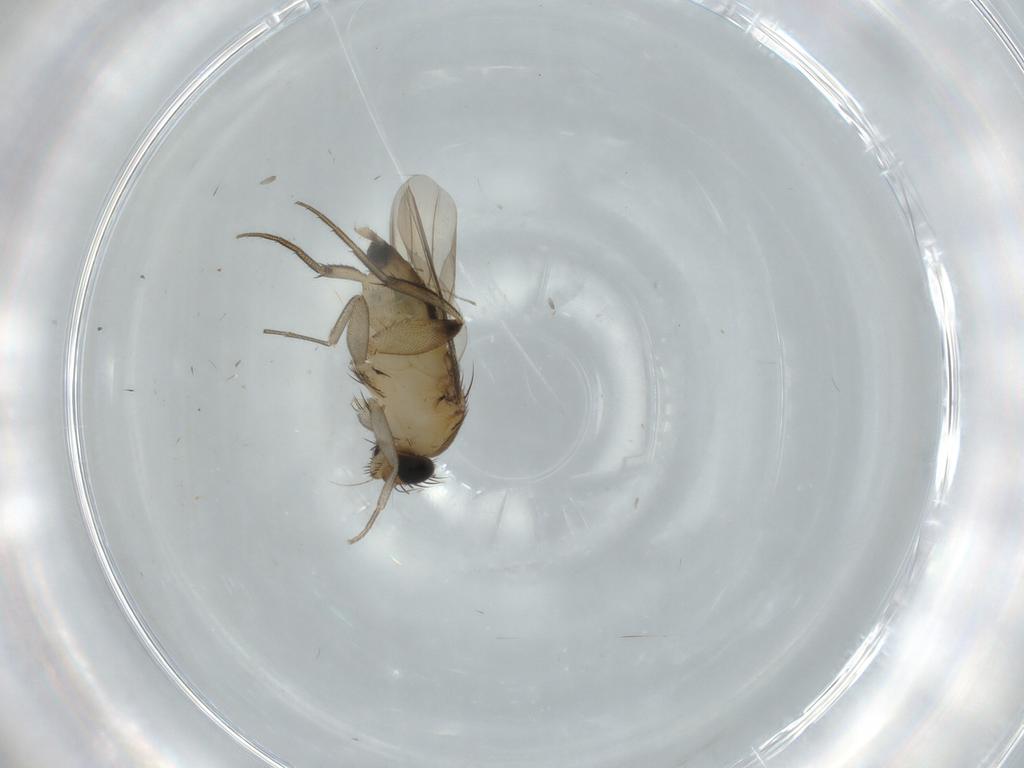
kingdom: Animalia
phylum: Arthropoda
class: Insecta
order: Diptera
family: Phoridae
